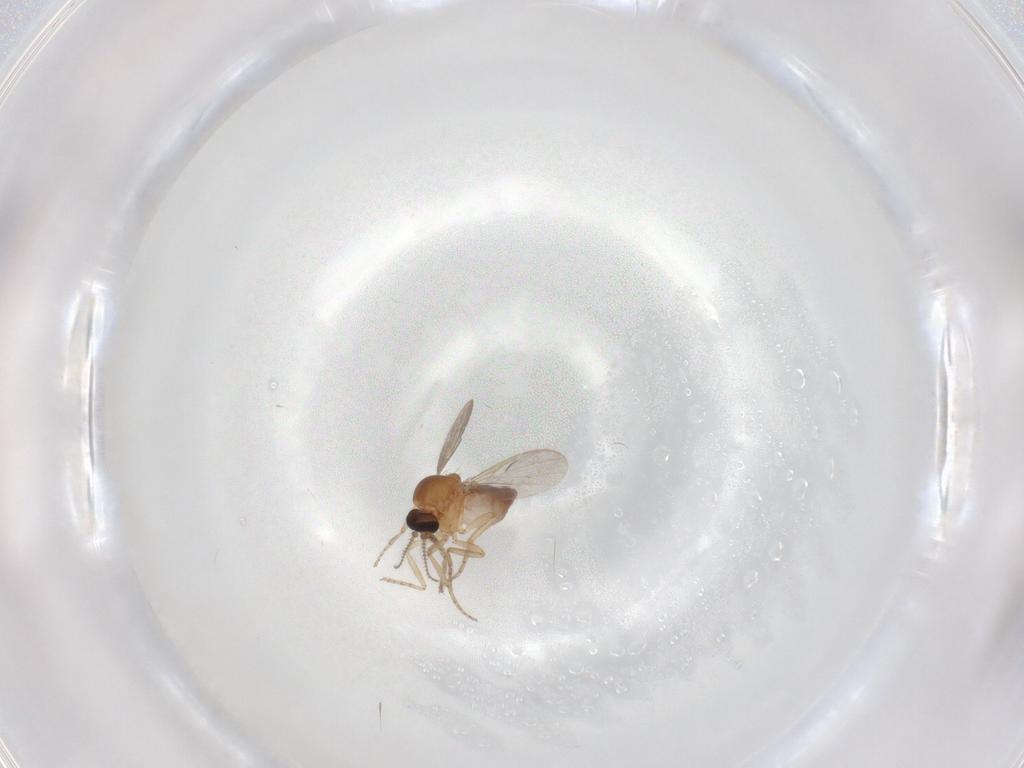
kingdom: Animalia
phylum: Arthropoda
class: Insecta
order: Diptera
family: Ceratopogonidae
